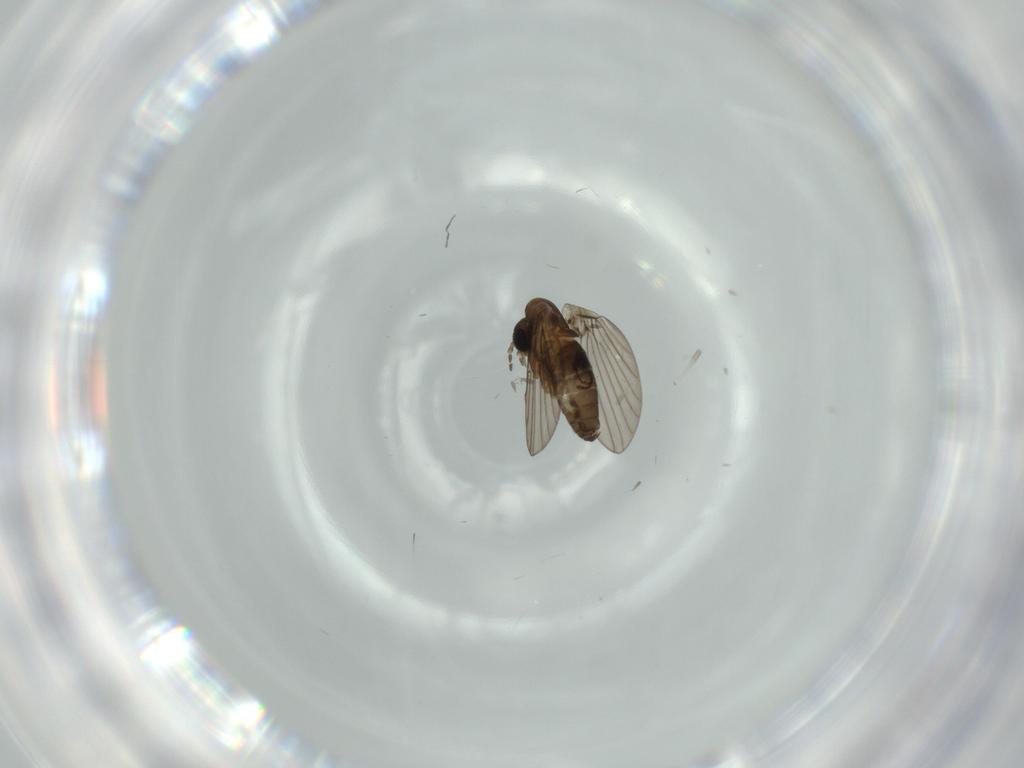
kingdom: Animalia
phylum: Arthropoda
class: Insecta
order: Diptera
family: Psychodidae
